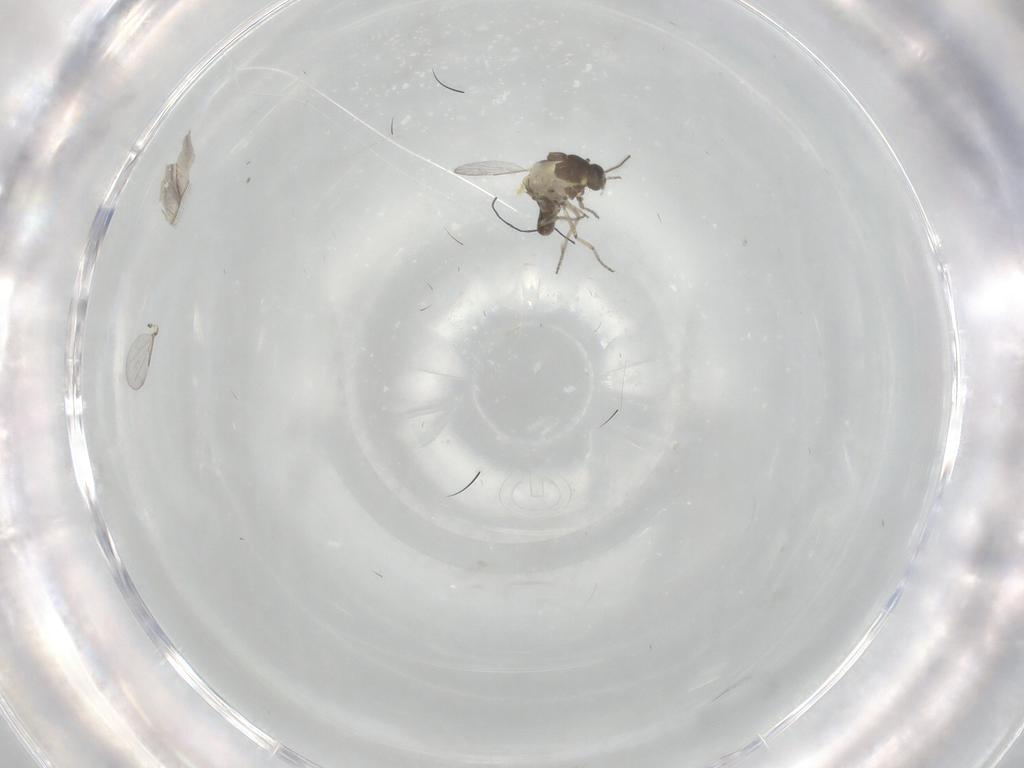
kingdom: Animalia
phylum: Arthropoda
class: Insecta
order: Diptera
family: Ceratopogonidae
